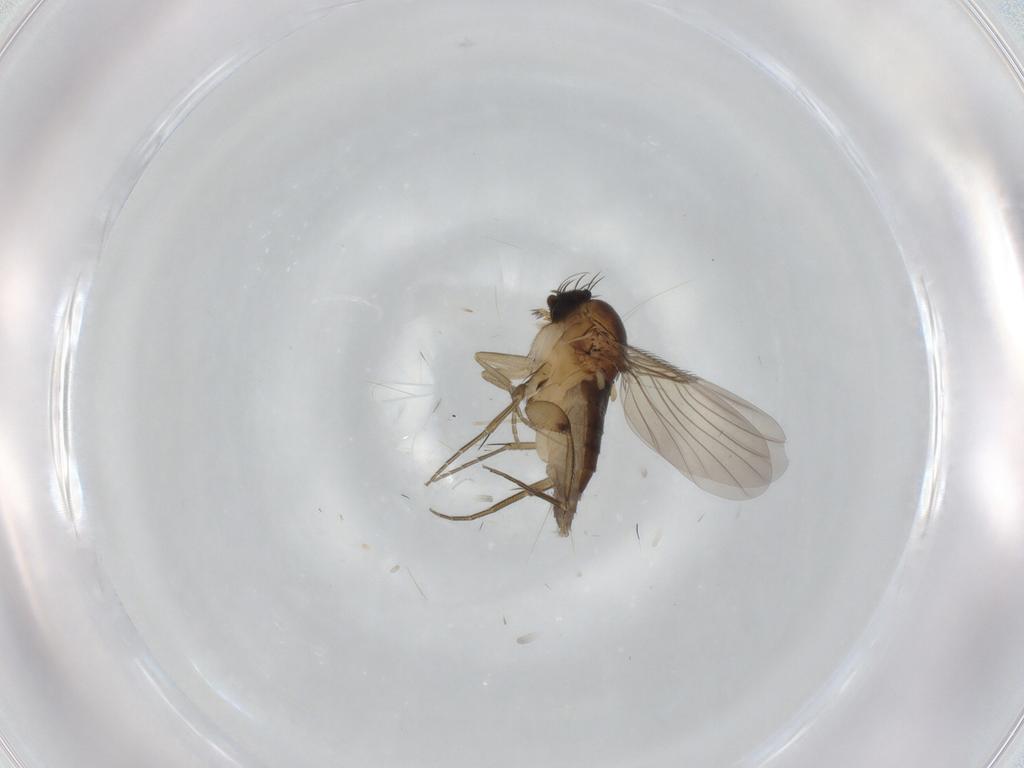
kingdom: Animalia
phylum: Arthropoda
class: Insecta
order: Diptera
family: Phoridae
